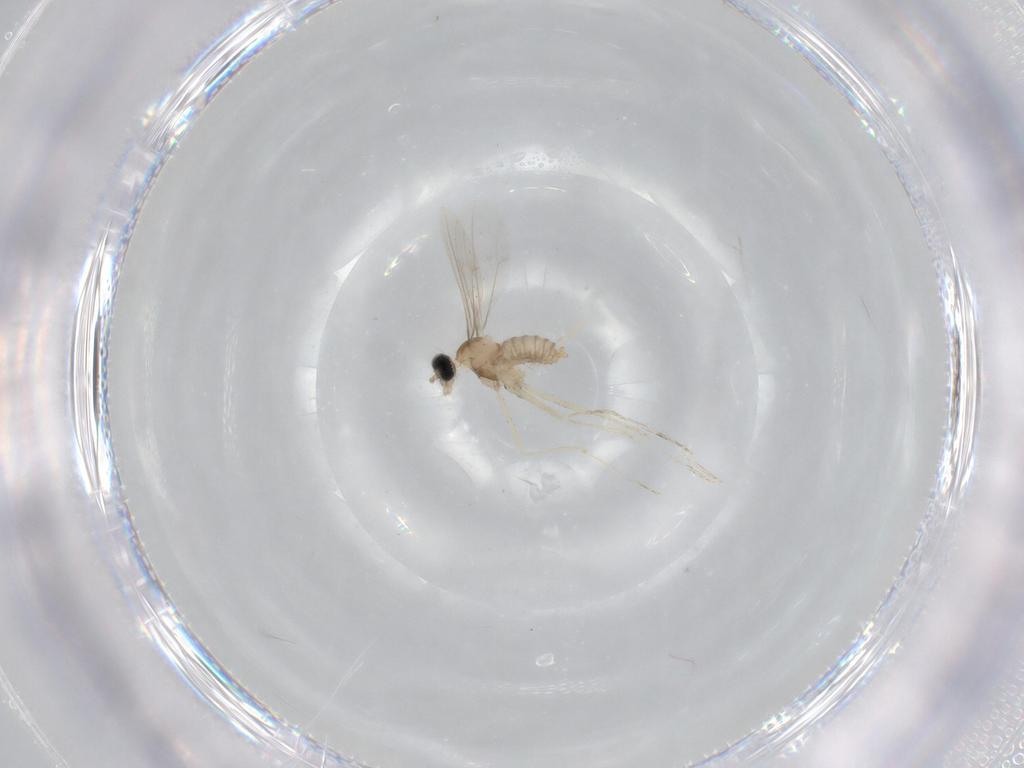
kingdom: Animalia
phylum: Arthropoda
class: Insecta
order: Diptera
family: Cecidomyiidae
